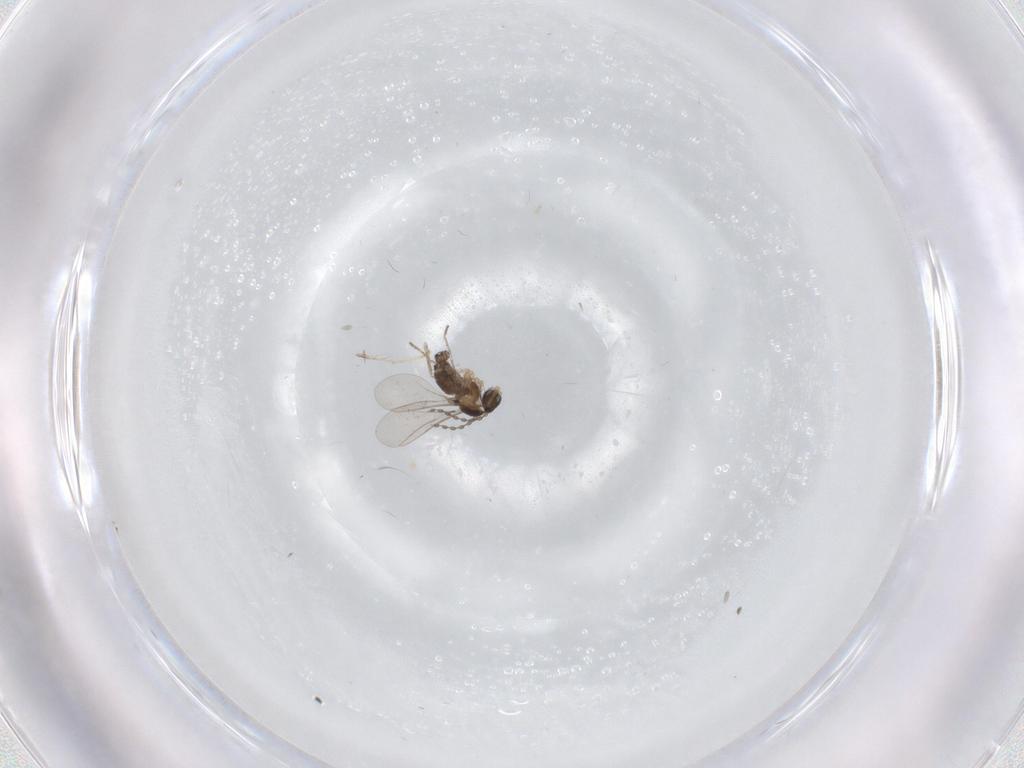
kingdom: Animalia
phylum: Arthropoda
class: Insecta
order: Diptera
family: Cecidomyiidae
